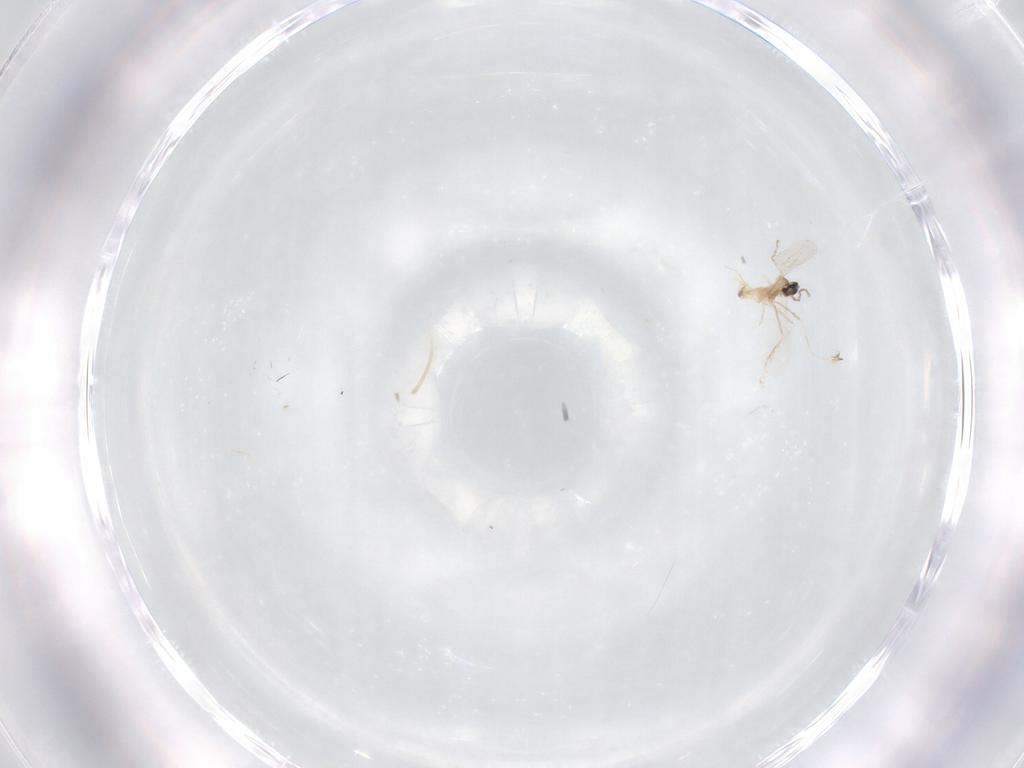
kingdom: Animalia
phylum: Arthropoda
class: Insecta
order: Diptera
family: Cecidomyiidae
